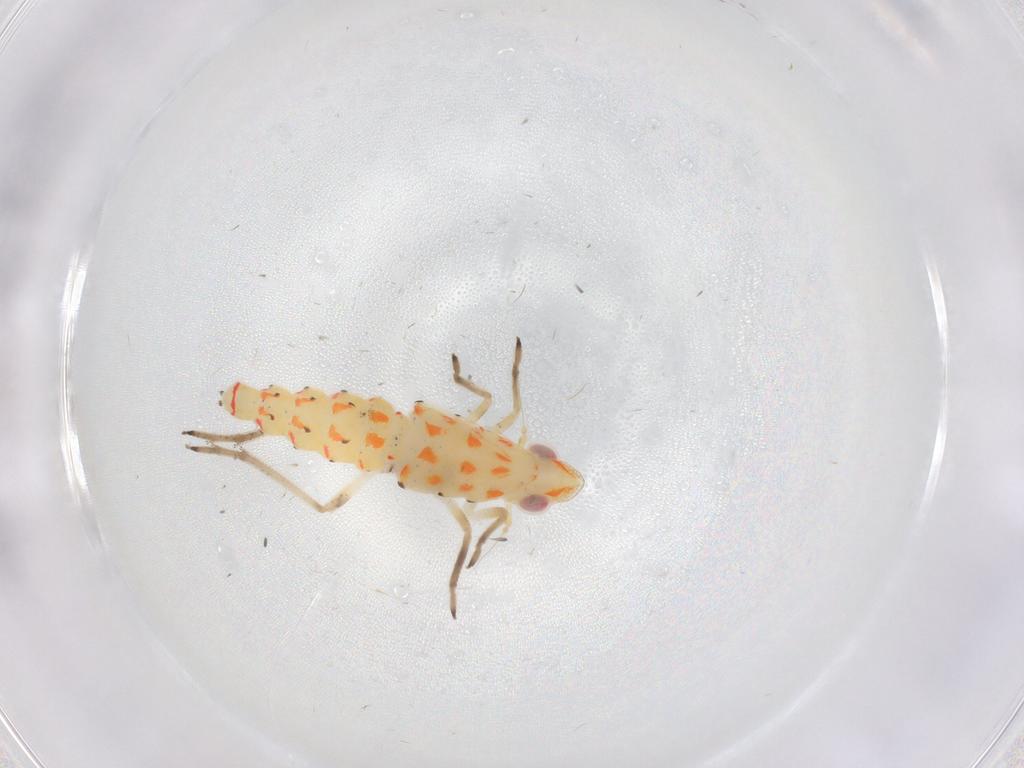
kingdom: Animalia
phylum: Arthropoda
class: Insecta
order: Hemiptera
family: Tropiduchidae
